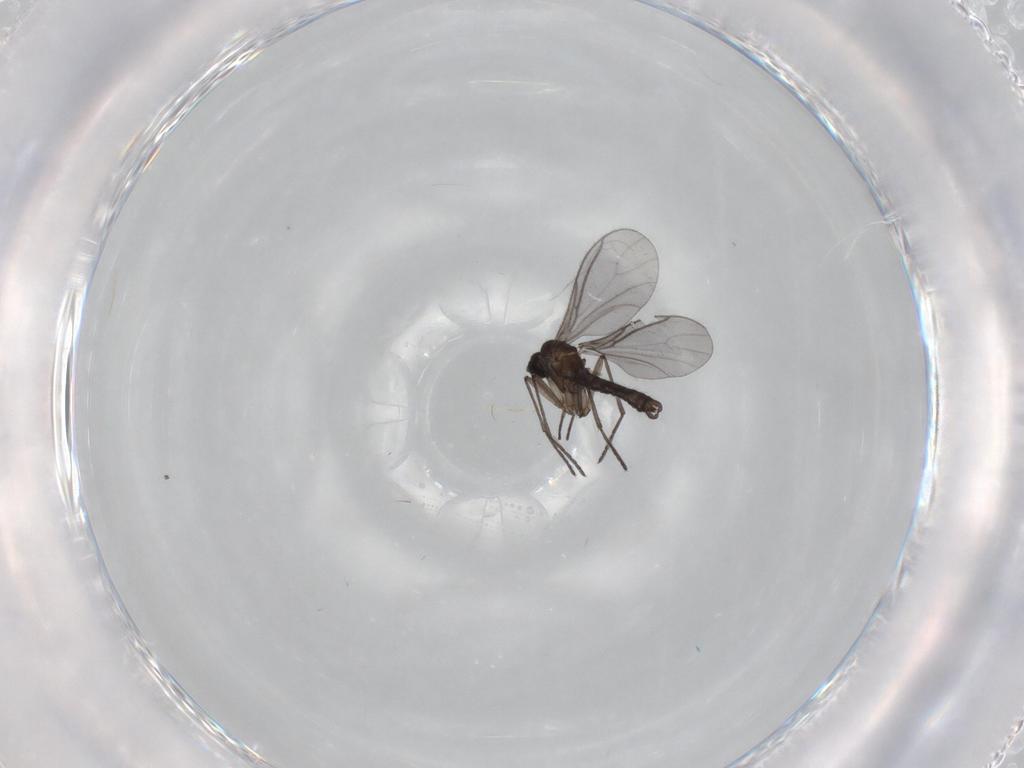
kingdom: Animalia
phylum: Arthropoda
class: Insecta
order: Diptera
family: Sciaridae
